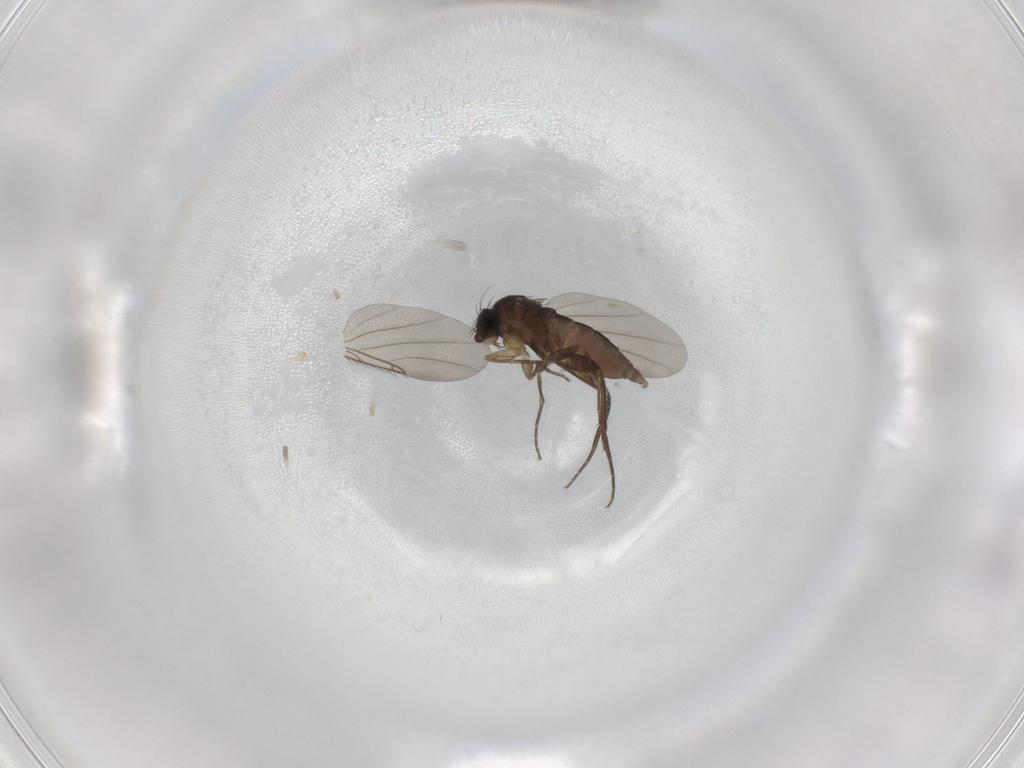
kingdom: Animalia
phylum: Arthropoda
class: Insecta
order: Diptera
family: Phoridae
